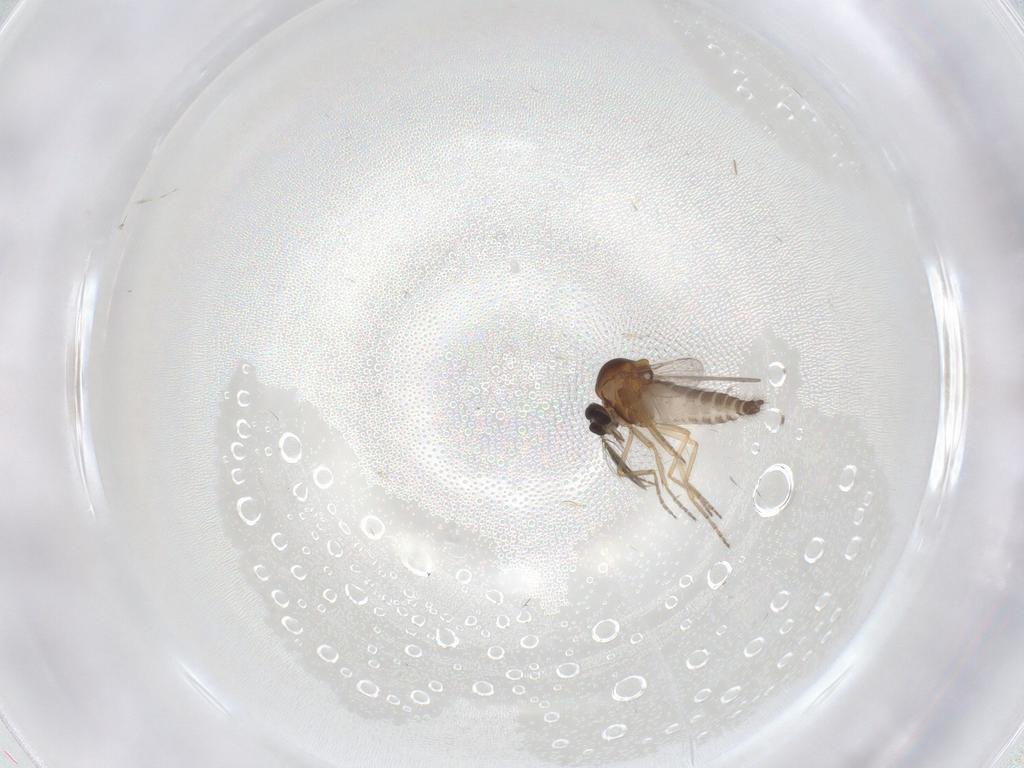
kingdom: Animalia
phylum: Arthropoda
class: Insecta
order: Diptera
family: Ceratopogonidae
